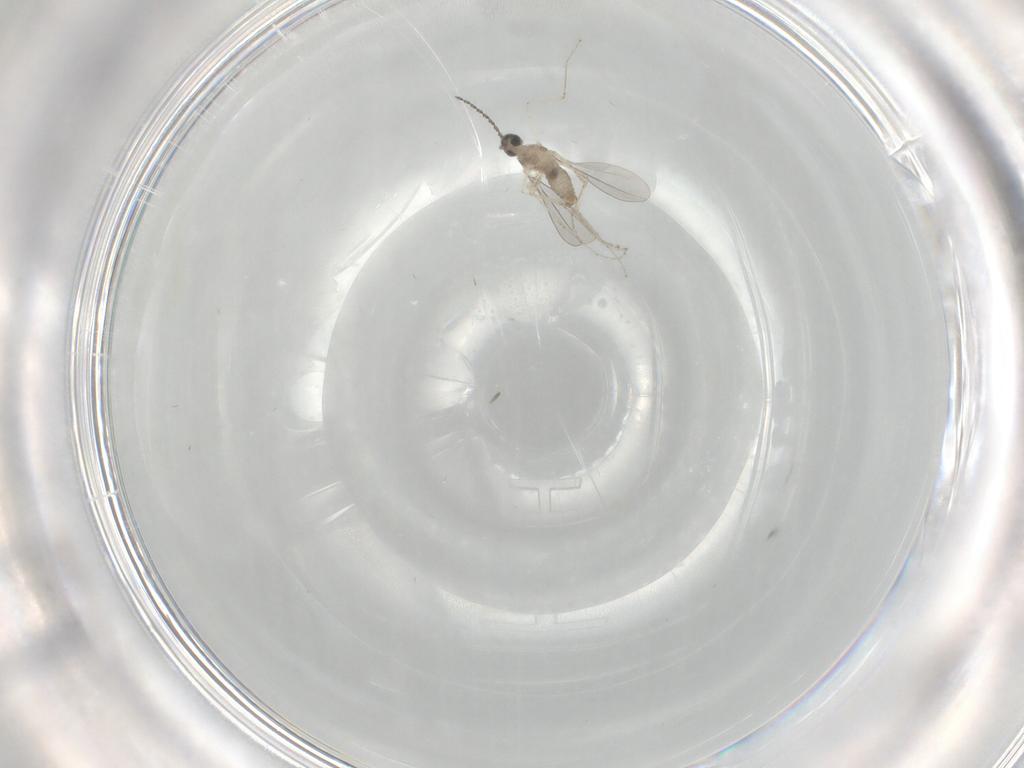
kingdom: Animalia
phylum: Arthropoda
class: Insecta
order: Diptera
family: Cecidomyiidae
